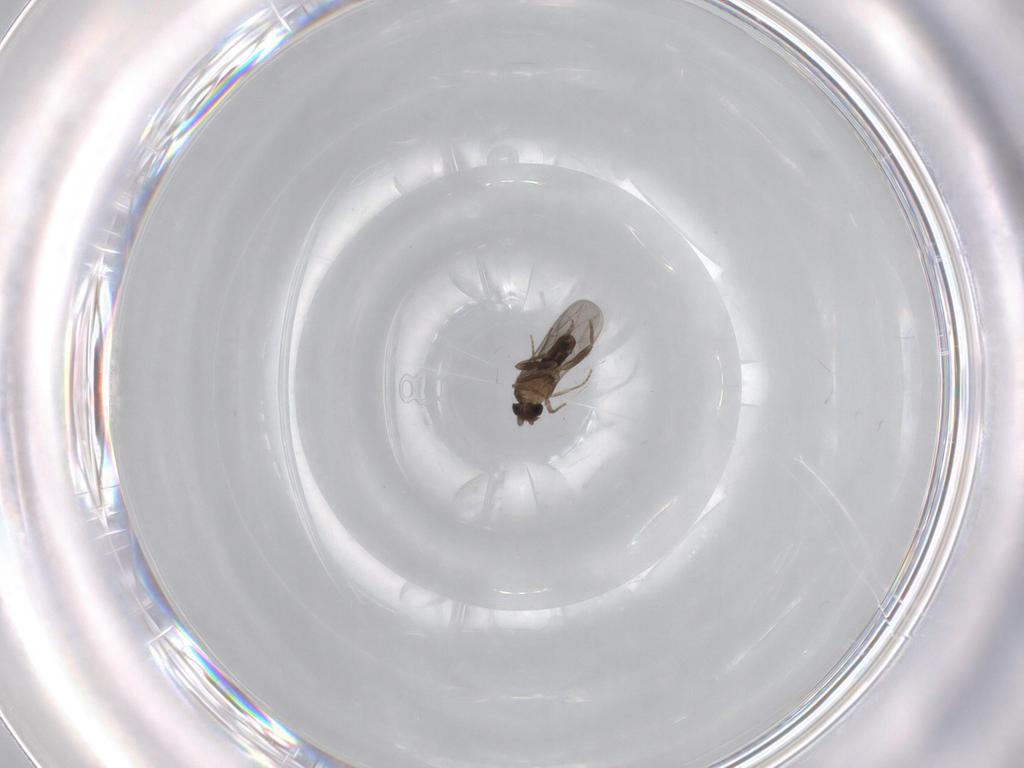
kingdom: Animalia
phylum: Arthropoda
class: Insecta
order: Diptera
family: Phoridae
